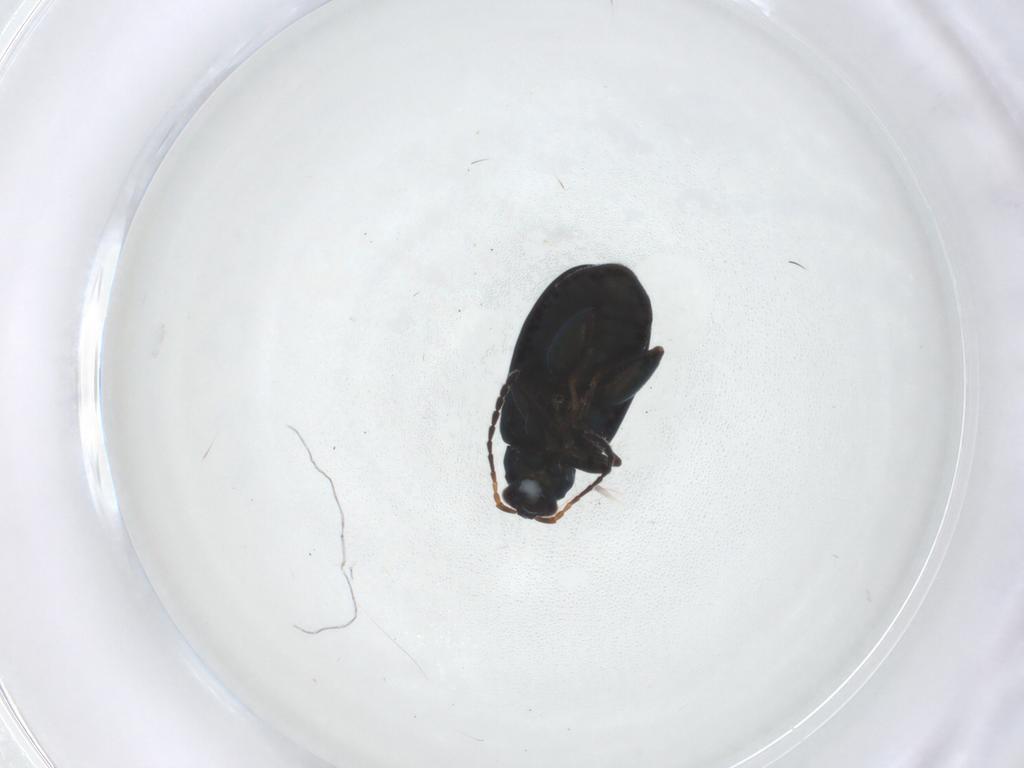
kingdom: Animalia
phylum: Arthropoda
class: Insecta
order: Coleoptera
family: Chrysomelidae
